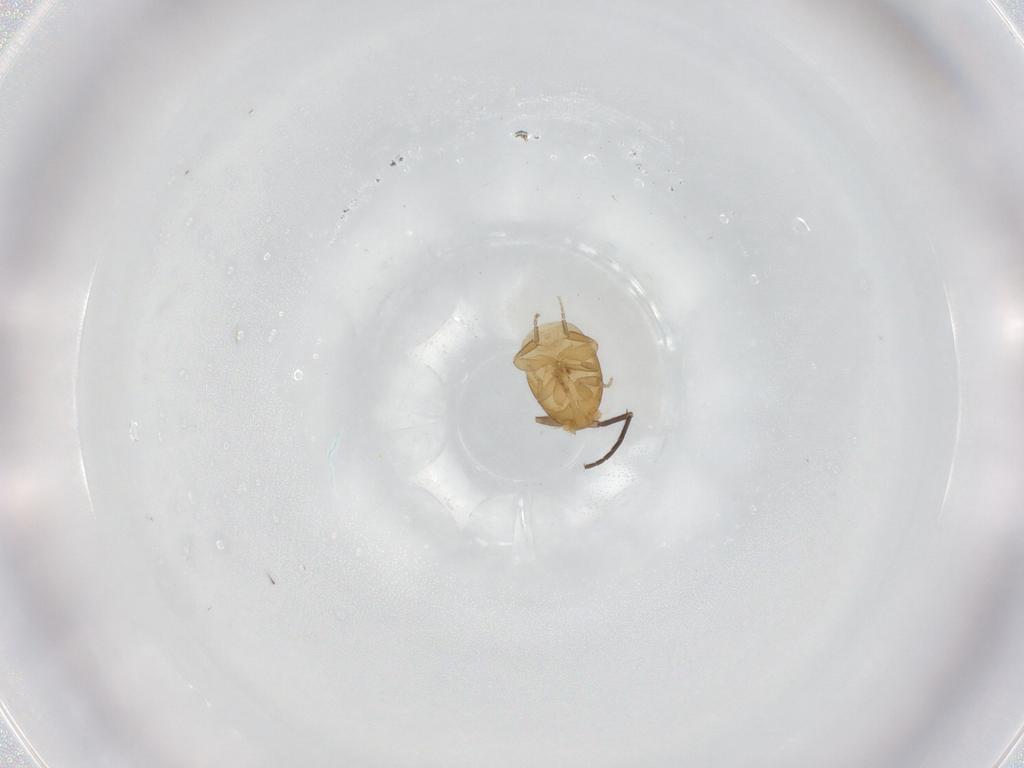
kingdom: Animalia
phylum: Arthropoda
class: Insecta
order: Diptera
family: Phoridae
